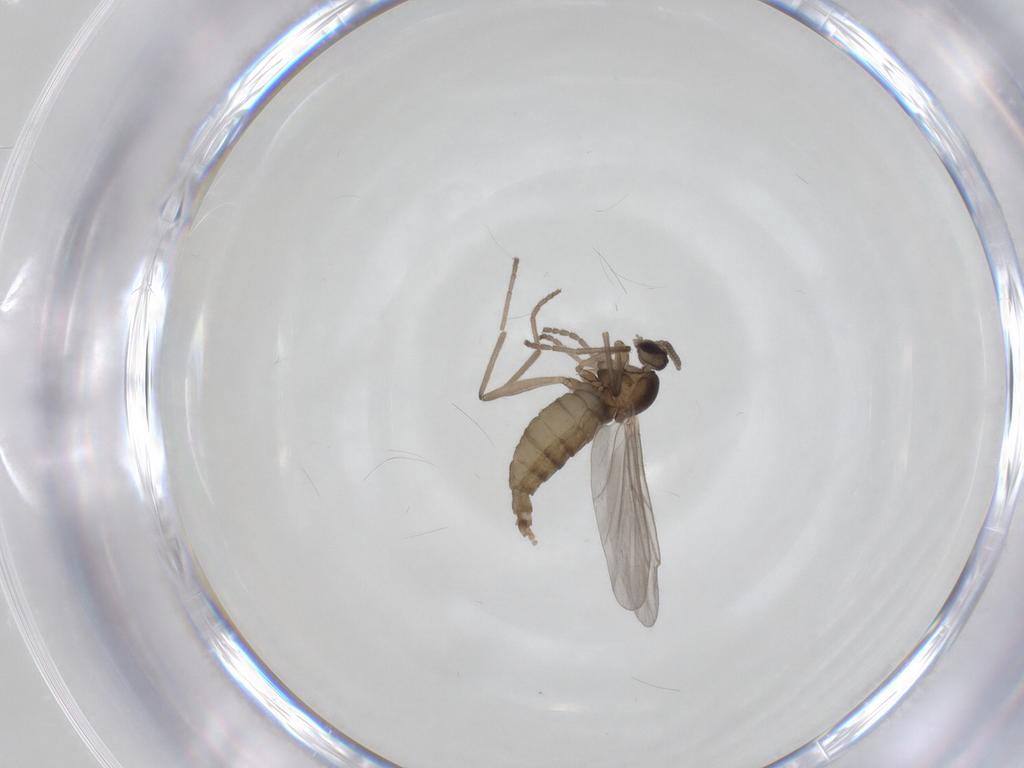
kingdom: Animalia
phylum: Arthropoda
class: Insecta
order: Diptera
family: Cecidomyiidae
